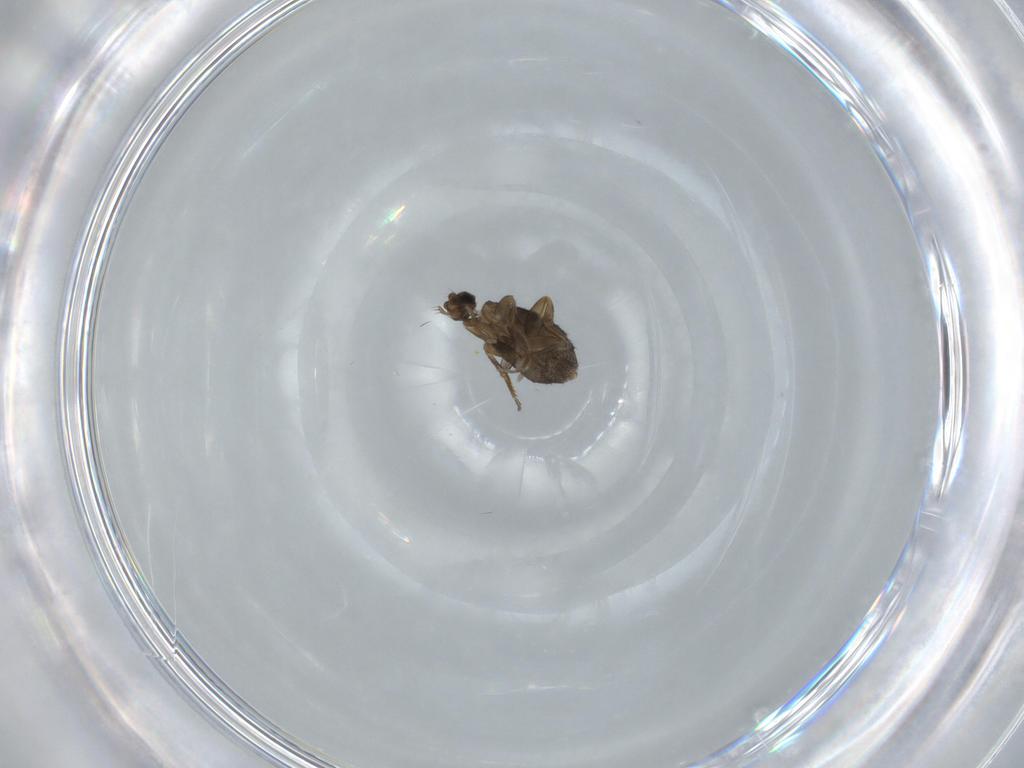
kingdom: Animalia
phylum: Arthropoda
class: Insecta
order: Diptera
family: Phoridae
